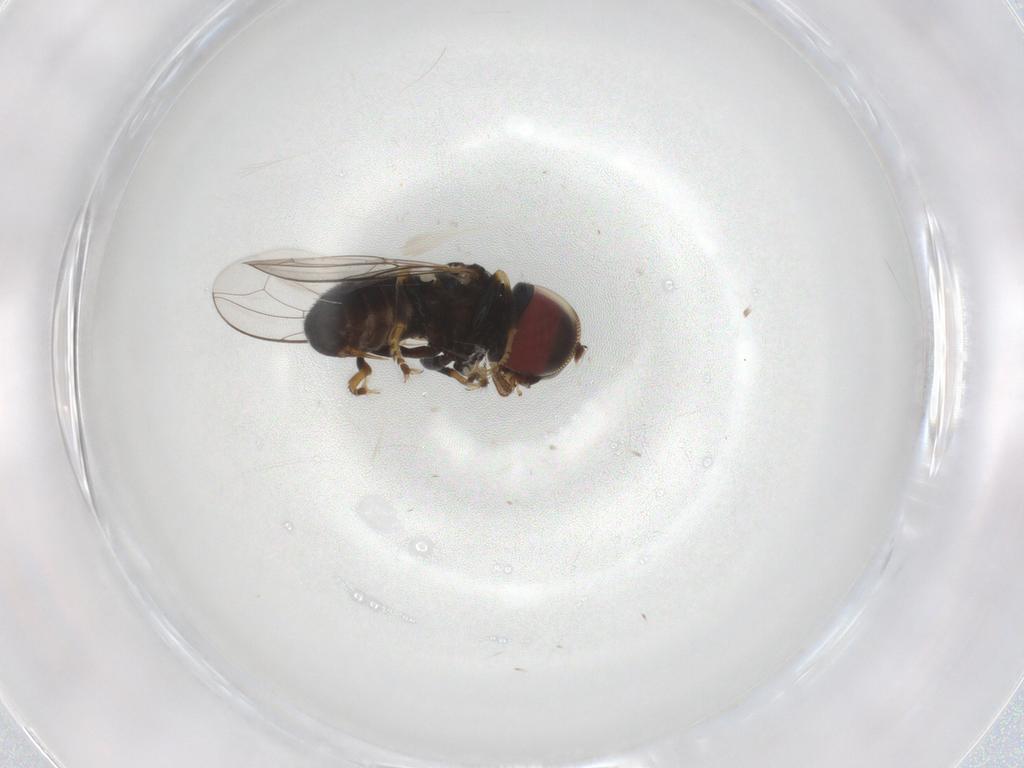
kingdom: Animalia
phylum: Arthropoda
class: Insecta
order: Diptera
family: Pipunculidae
